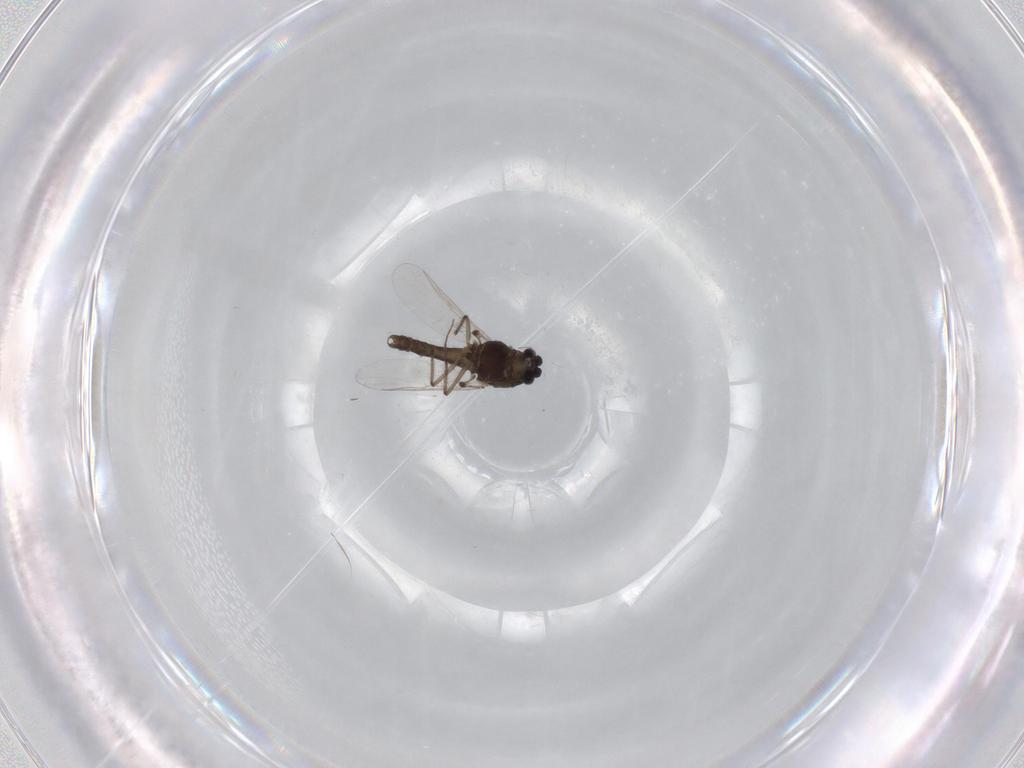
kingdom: Animalia
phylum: Arthropoda
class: Insecta
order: Diptera
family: Chironomidae
